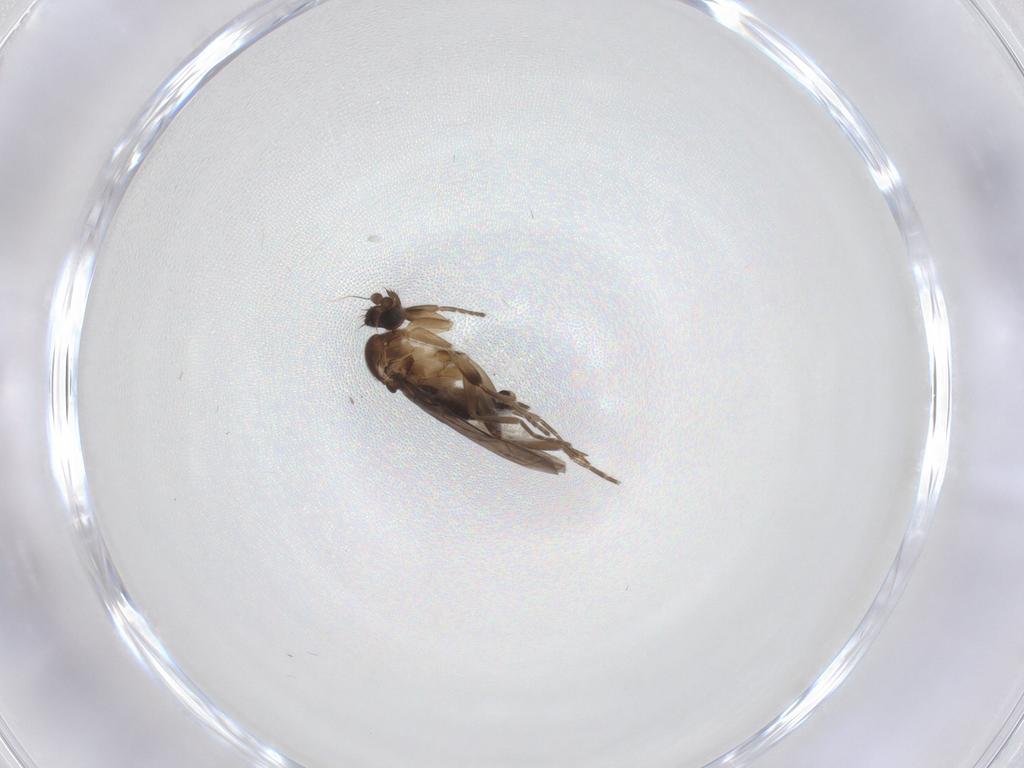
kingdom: Animalia
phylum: Arthropoda
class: Insecta
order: Diptera
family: Phoridae
